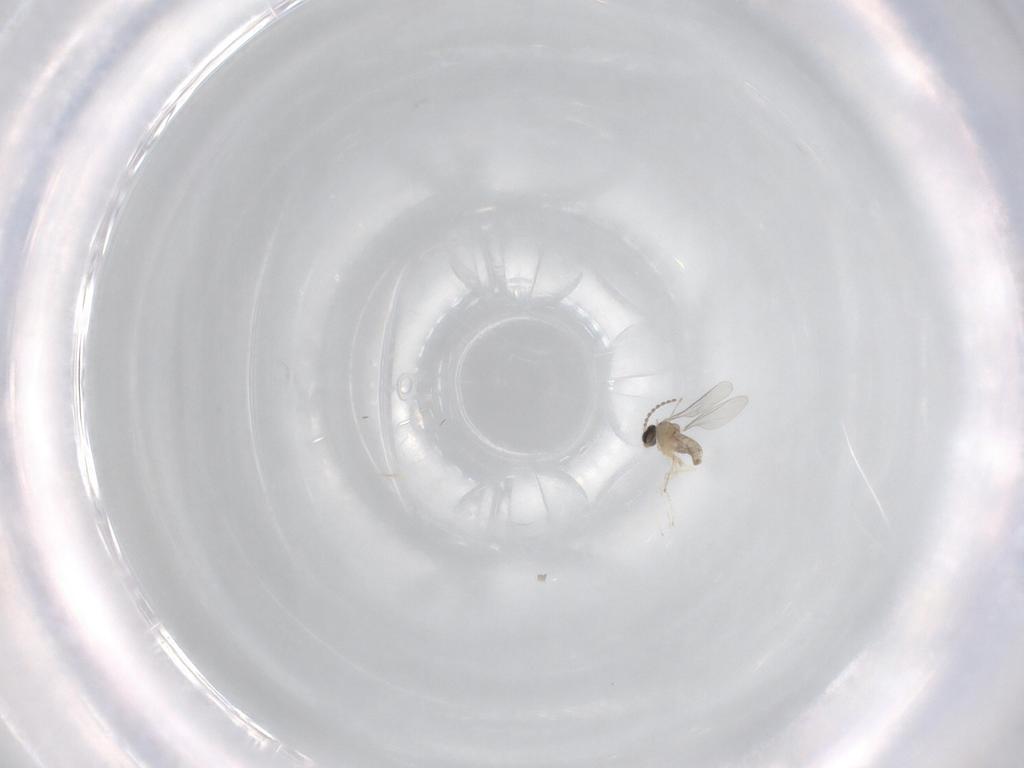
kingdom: Animalia
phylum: Arthropoda
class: Insecta
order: Diptera
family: Cecidomyiidae
